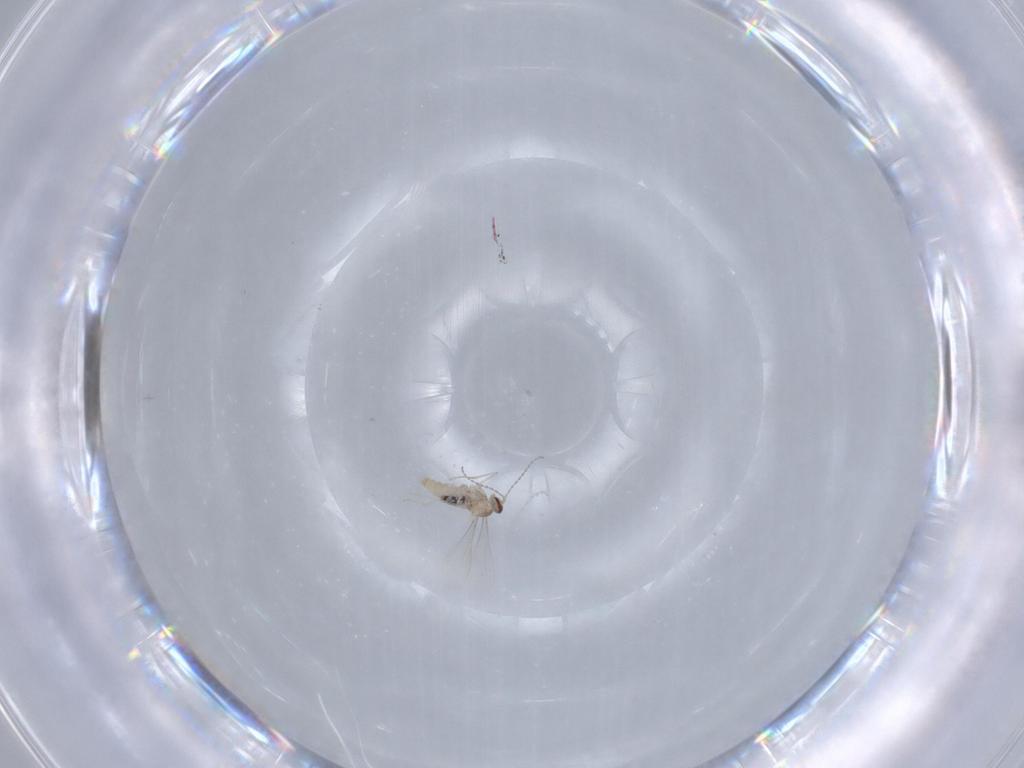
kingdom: Animalia
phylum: Arthropoda
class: Insecta
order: Diptera
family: Cecidomyiidae
